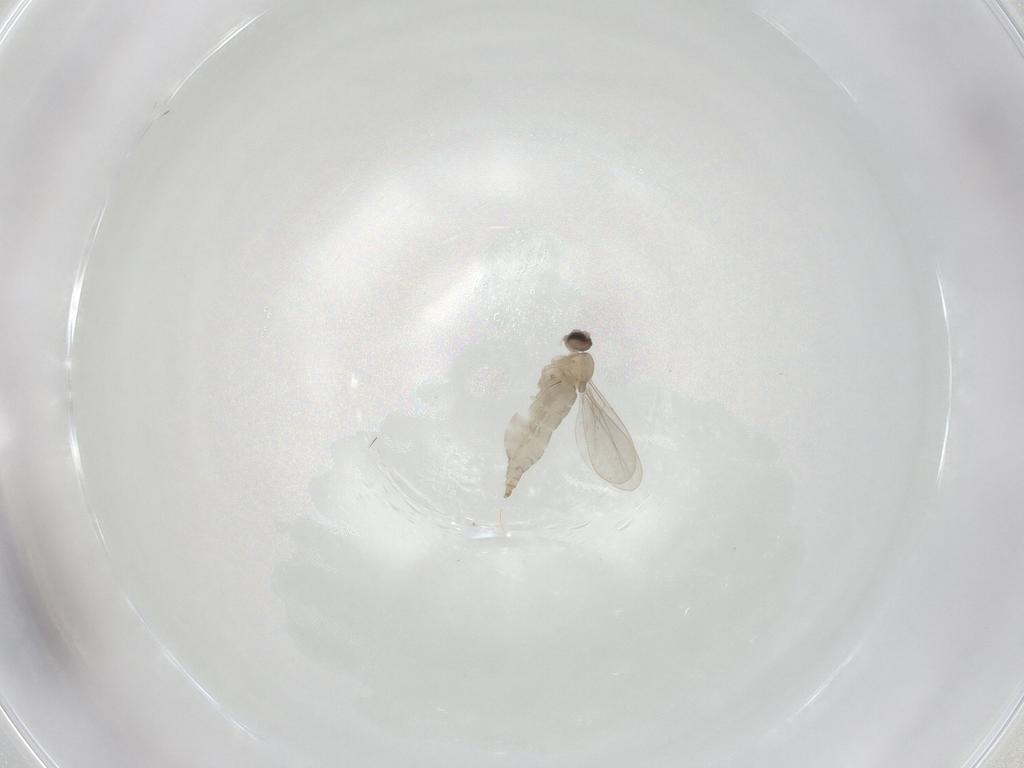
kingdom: Animalia
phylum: Arthropoda
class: Insecta
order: Diptera
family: Cecidomyiidae
